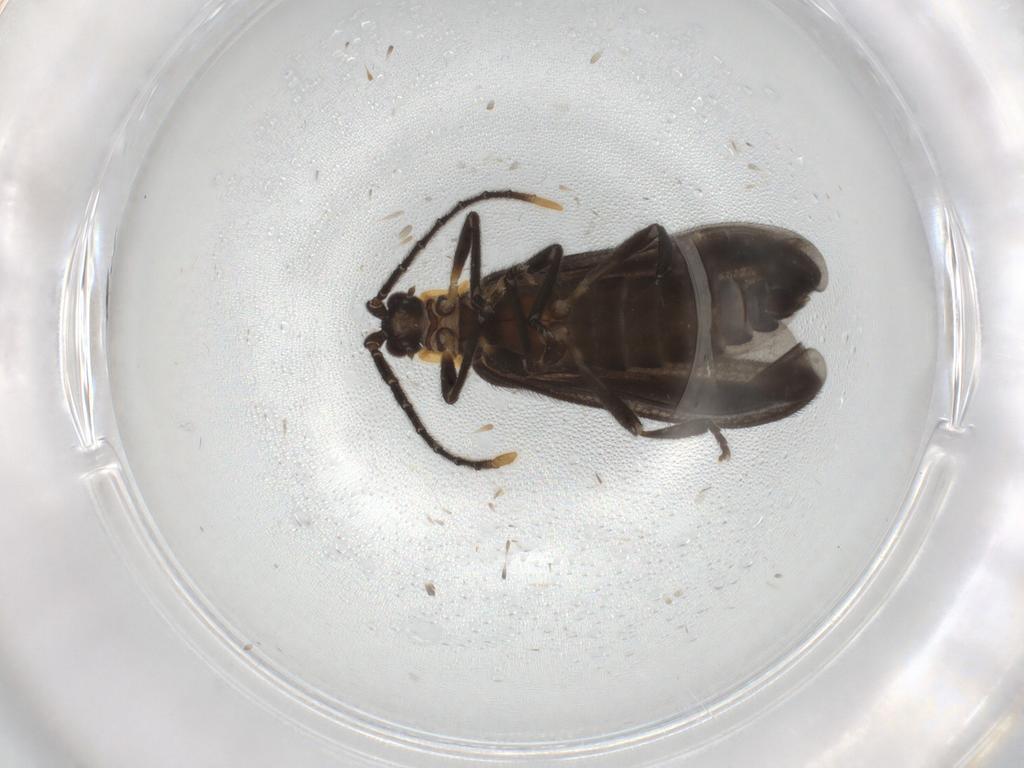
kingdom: Animalia
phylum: Arthropoda
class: Insecta
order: Coleoptera
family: Lycidae
